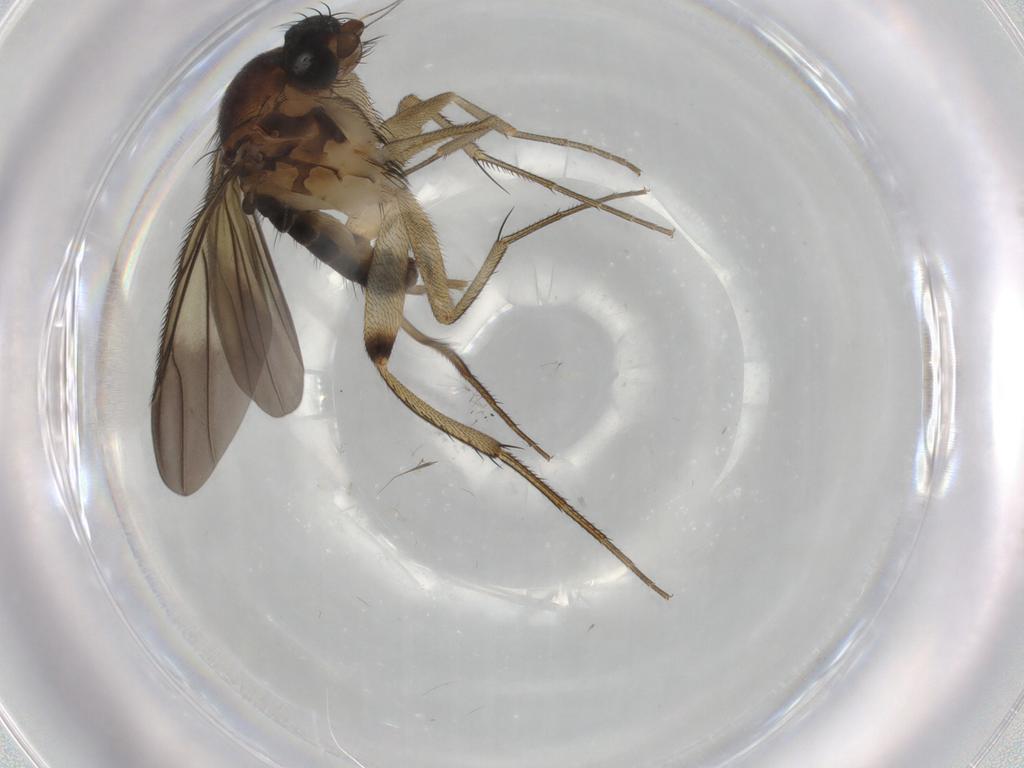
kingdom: Animalia
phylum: Arthropoda
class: Insecta
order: Diptera
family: Phoridae
